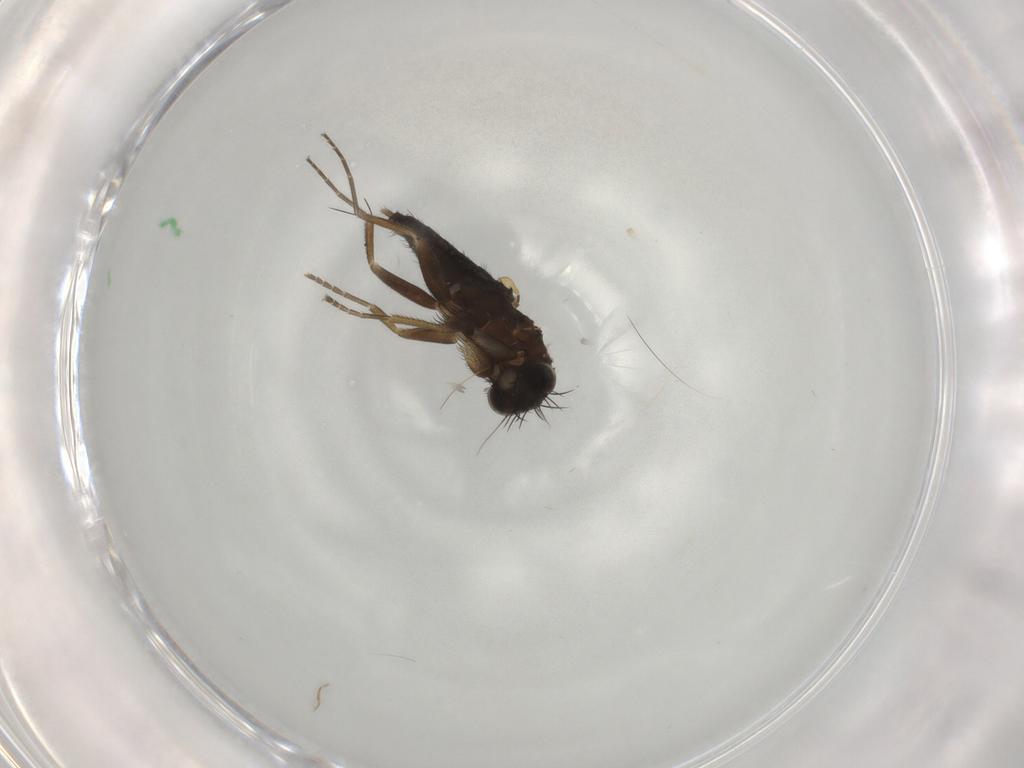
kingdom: Animalia
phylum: Arthropoda
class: Insecta
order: Diptera
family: Phoridae
